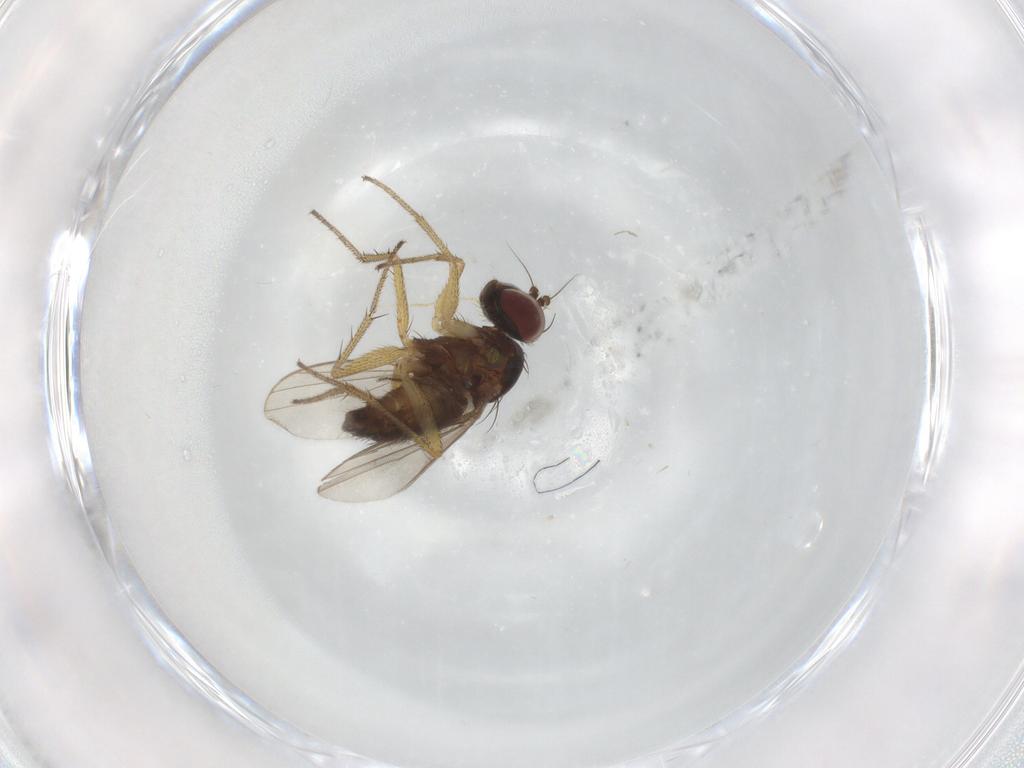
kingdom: Animalia
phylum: Arthropoda
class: Insecta
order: Diptera
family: Dolichopodidae
